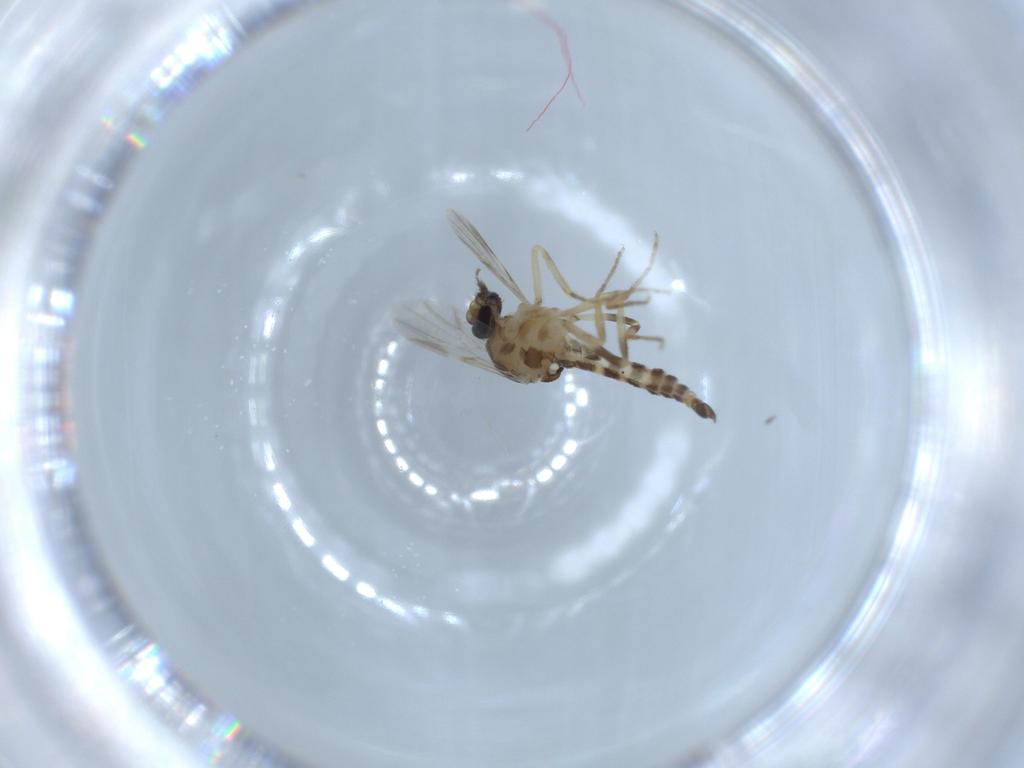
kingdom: Animalia
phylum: Arthropoda
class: Insecta
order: Diptera
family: Ceratopogonidae
